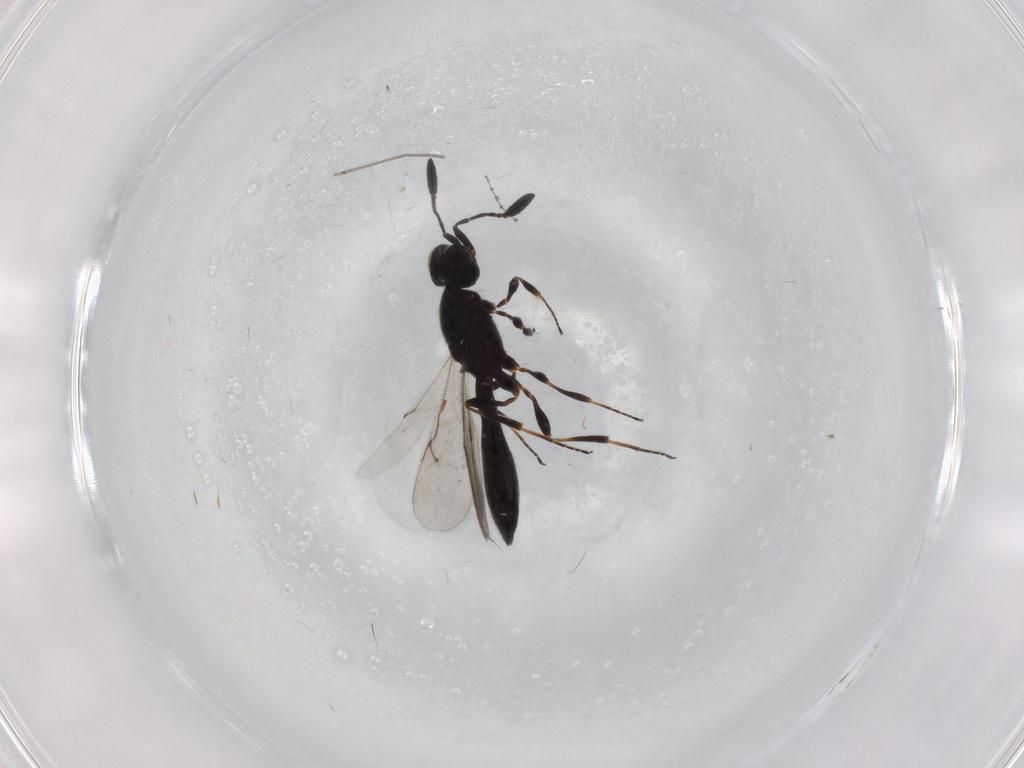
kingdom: Animalia
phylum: Arthropoda
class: Insecta
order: Hymenoptera
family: Scelionidae
